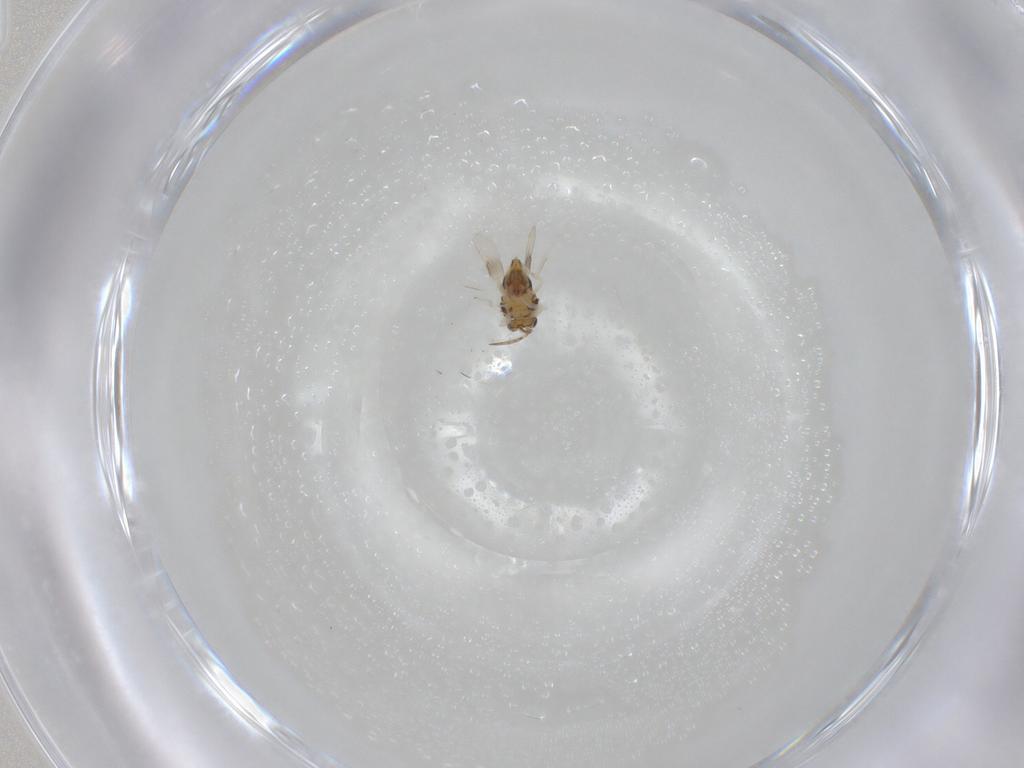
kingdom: Animalia
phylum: Arthropoda
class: Insecta
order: Hymenoptera
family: Aphelinidae
